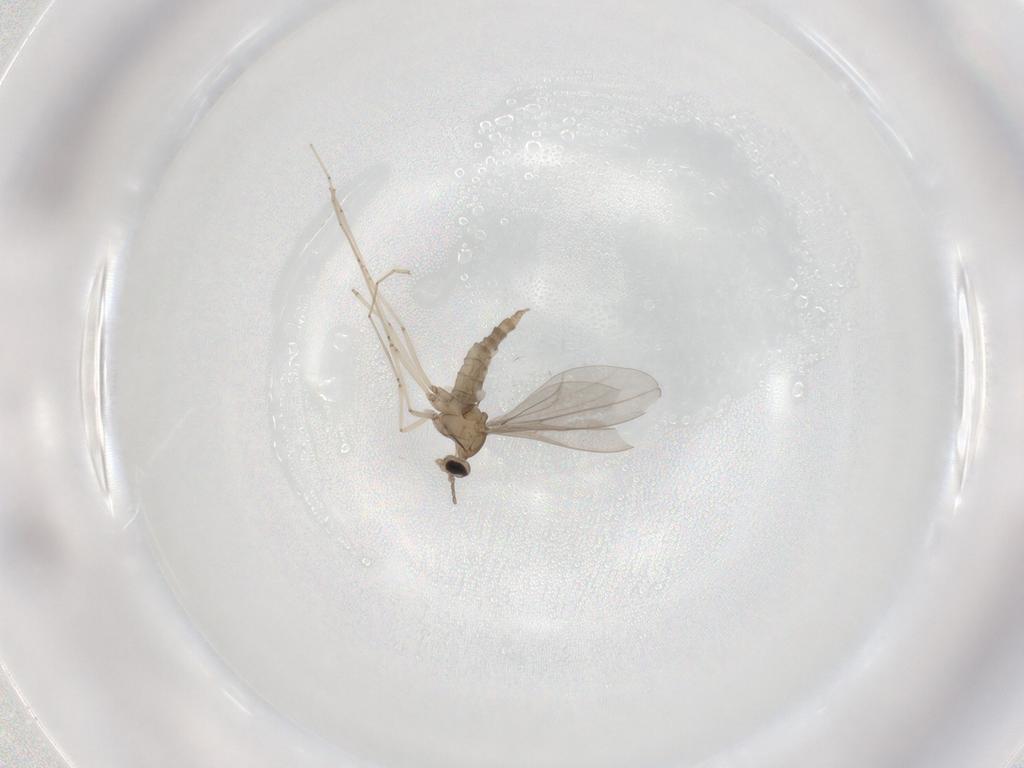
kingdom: Animalia
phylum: Arthropoda
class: Insecta
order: Diptera
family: Cecidomyiidae
